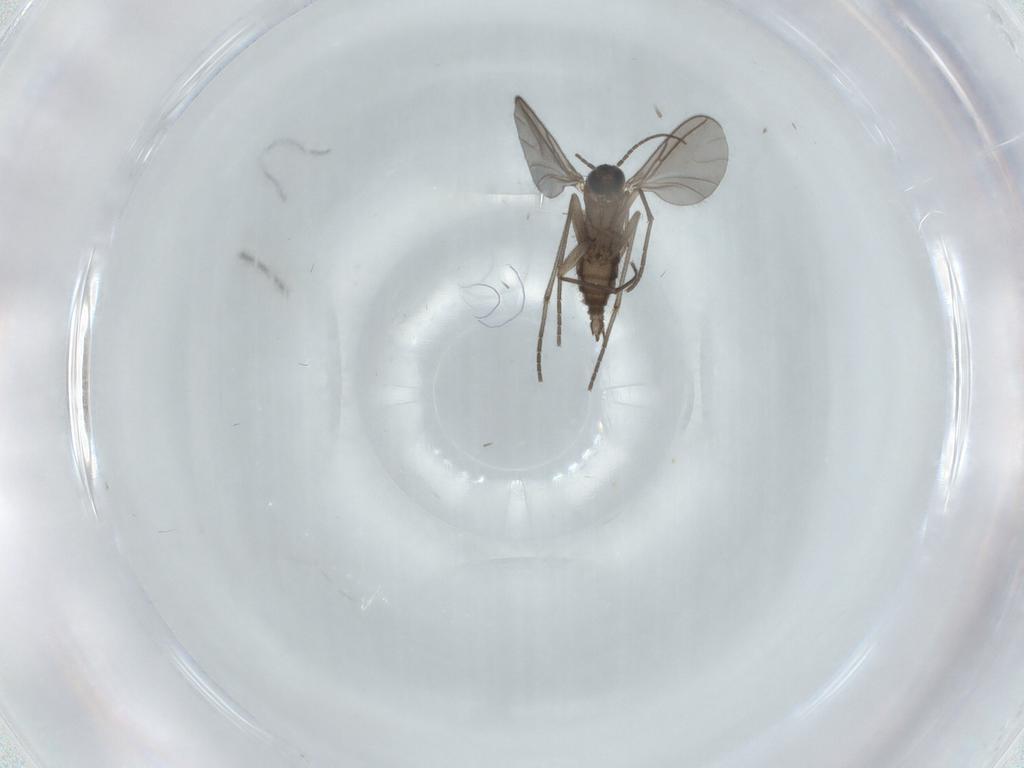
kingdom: Animalia
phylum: Arthropoda
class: Insecta
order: Diptera
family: Sciaridae
